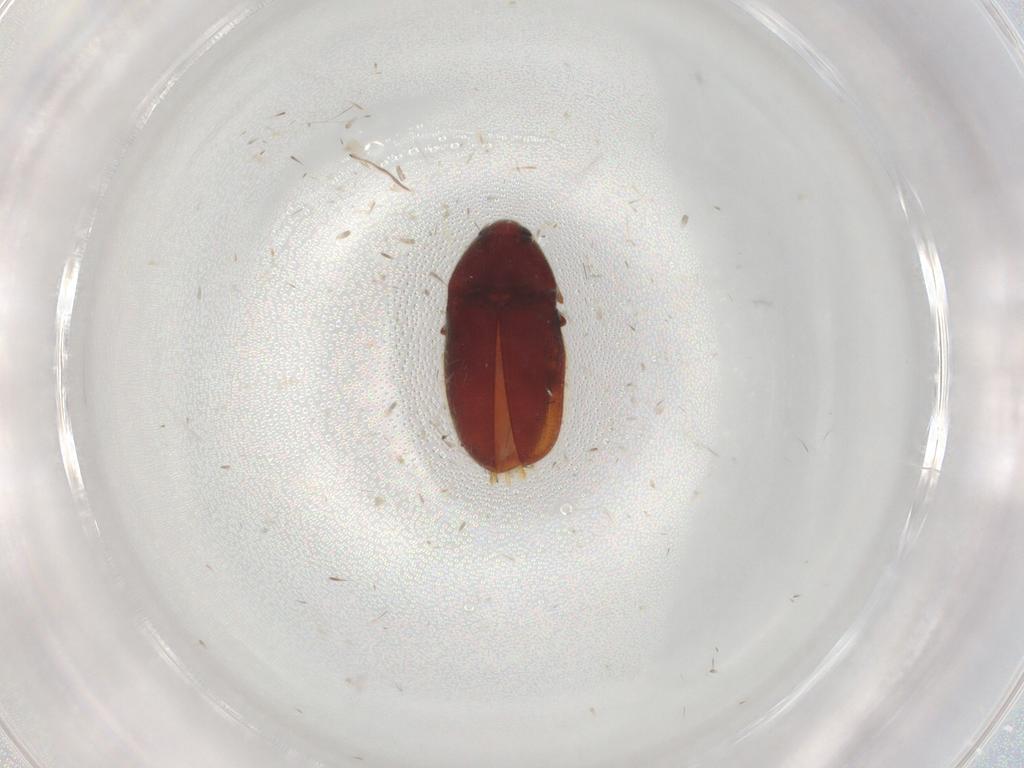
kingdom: Animalia
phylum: Arthropoda
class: Insecta
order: Coleoptera
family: Throscidae
